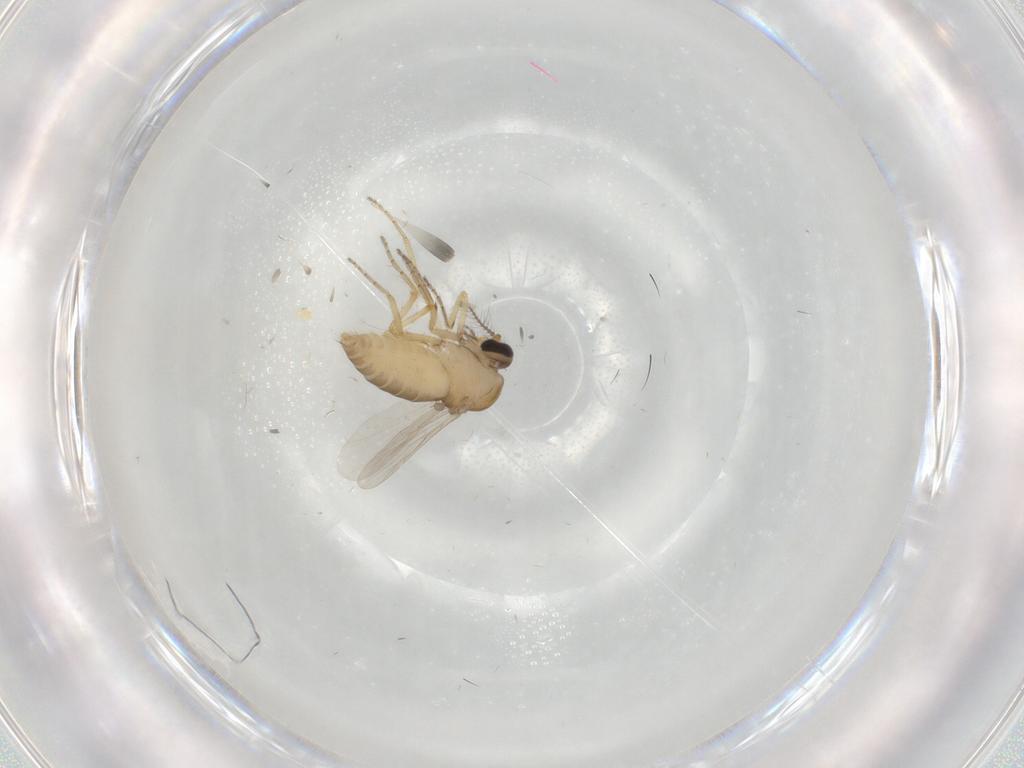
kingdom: Animalia
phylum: Arthropoda
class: Insecta
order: Diptera
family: Ceratopogonidae
